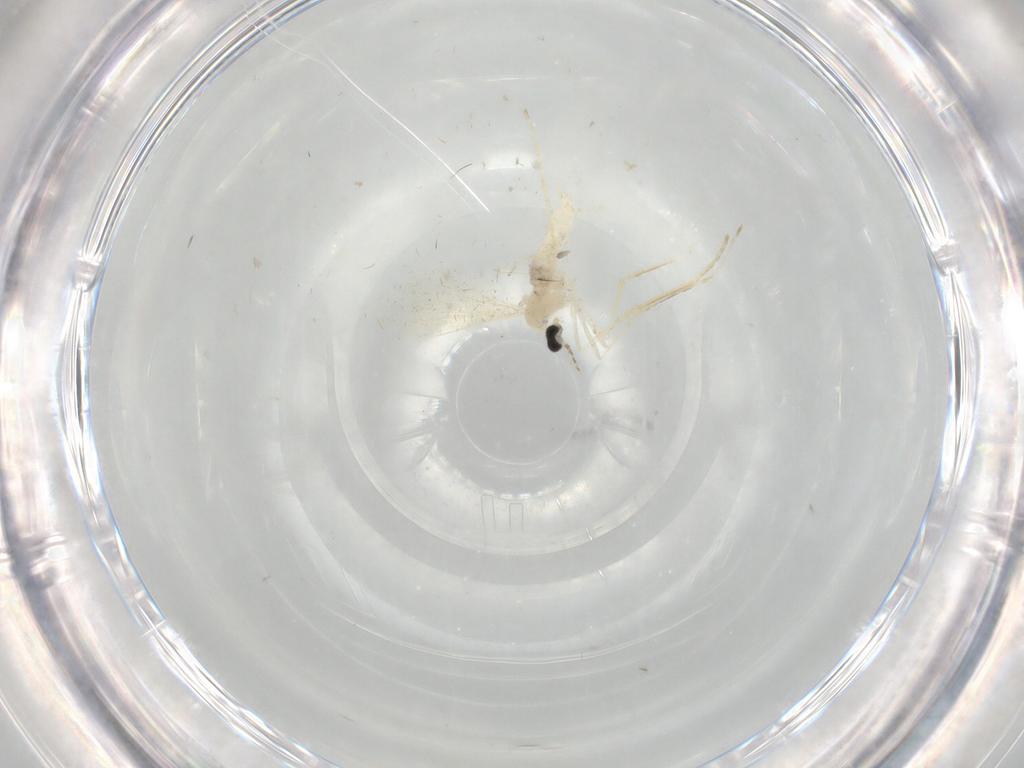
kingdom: Animalia
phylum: Arthropoda
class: Insecta
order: Diptera
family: Cecidomyiidae
